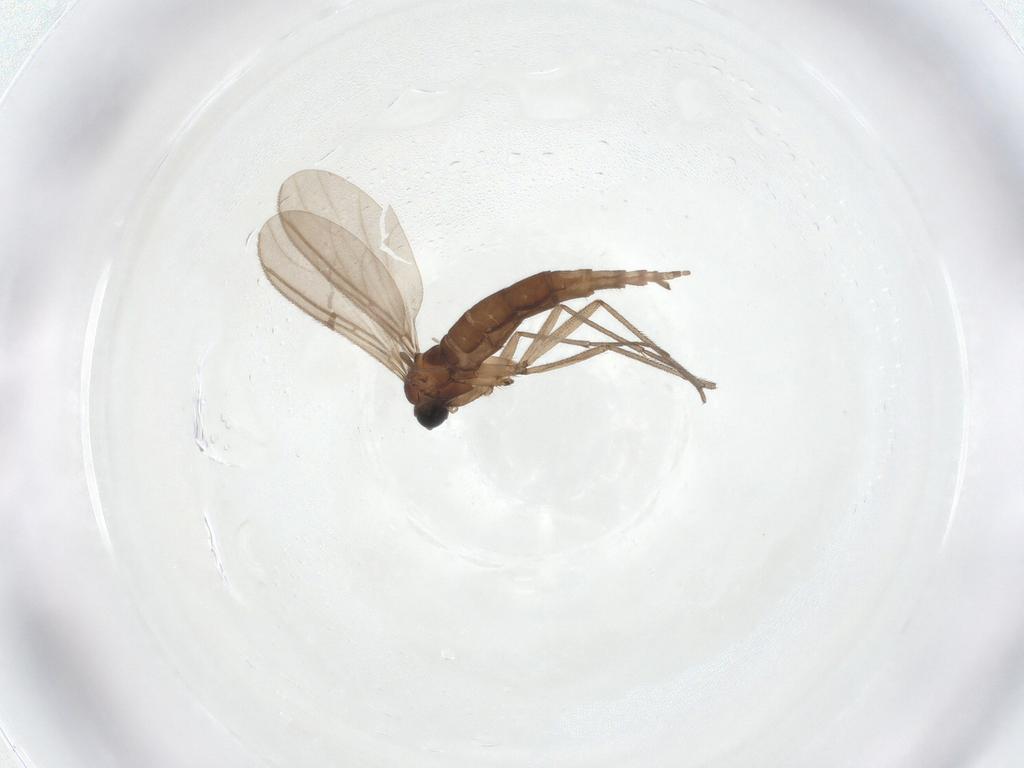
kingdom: Animalia
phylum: Arthropoda
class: Insecta
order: Diptera
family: Sciaridae
